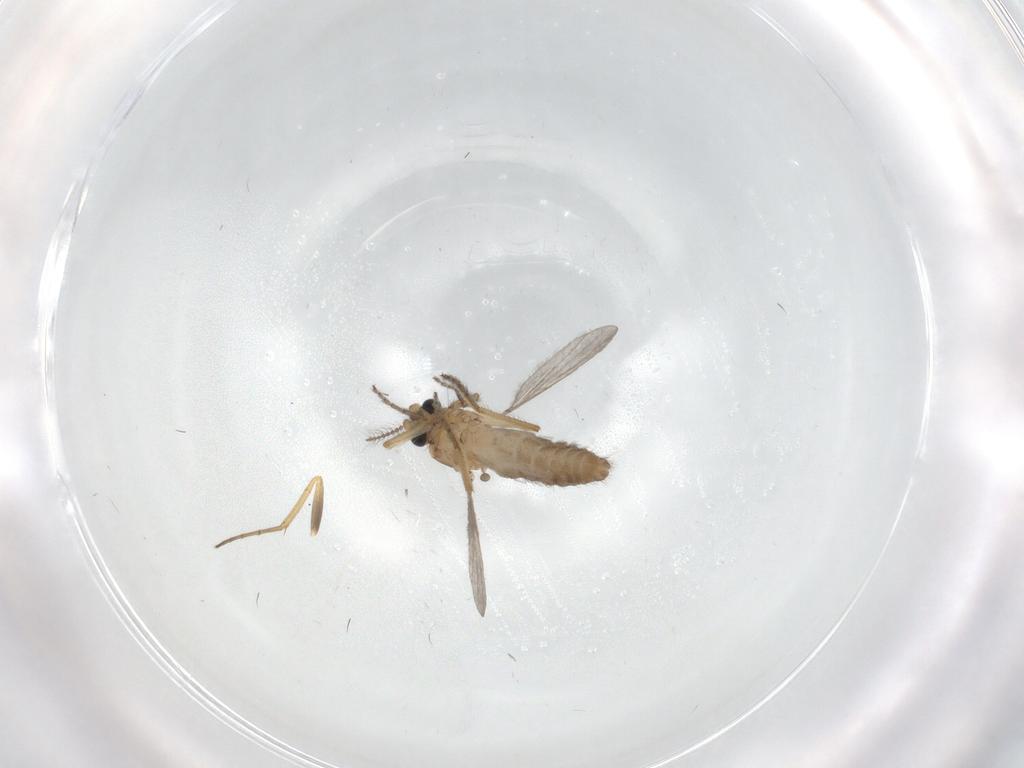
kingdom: Animalia
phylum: Arthropoda
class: Insecta
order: Diptera
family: Ceratopogonidae
